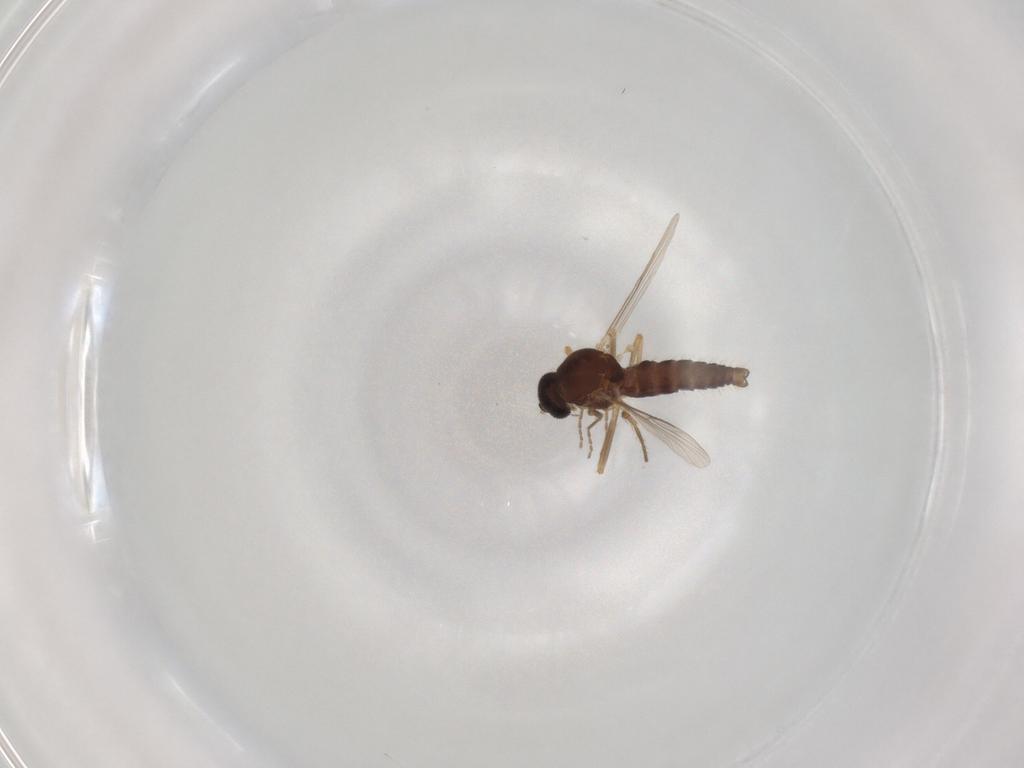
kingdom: Animalia
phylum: Arthropoda
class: Insecta
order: Diptera
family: Ceratopogonidae
